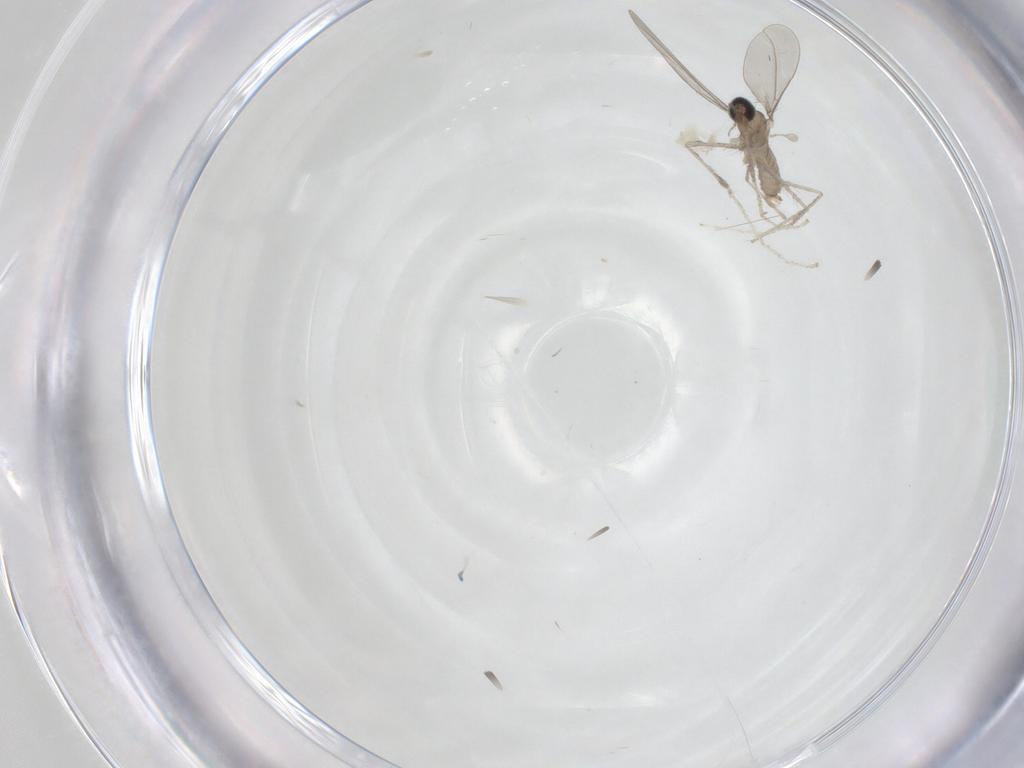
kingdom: Animalia
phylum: Arthropoda
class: Insecta
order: Diptera
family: Cecidomyiidae
